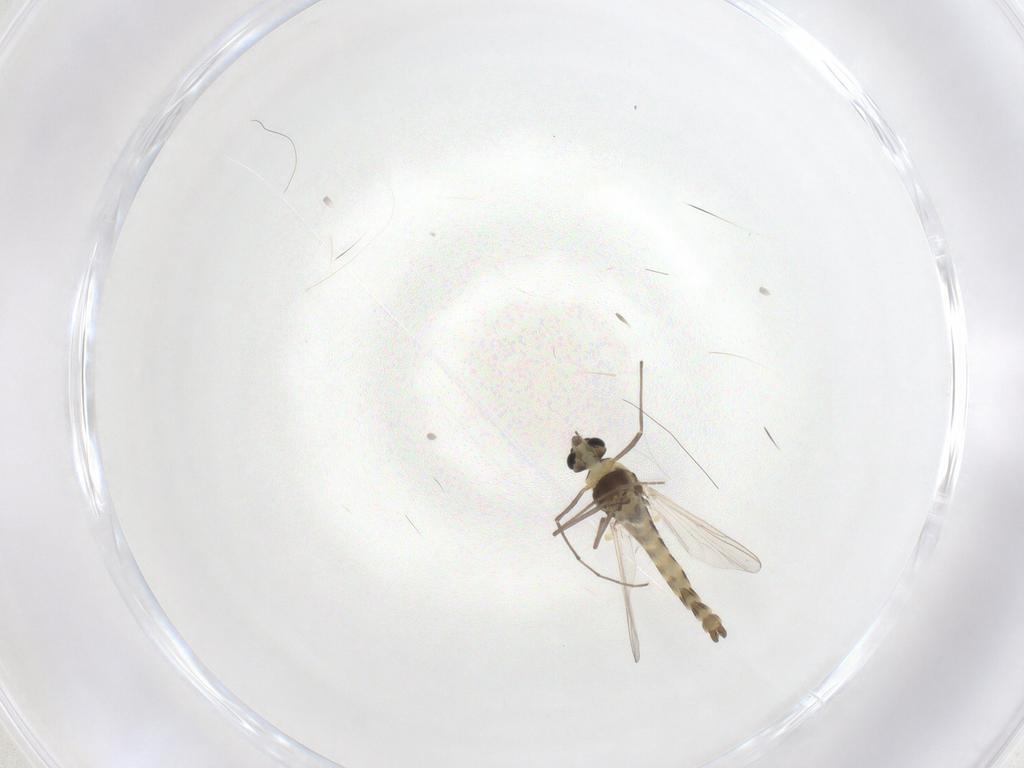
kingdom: Animalia
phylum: Arthropoda
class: Insecta
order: Diptera
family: Chironomidae
